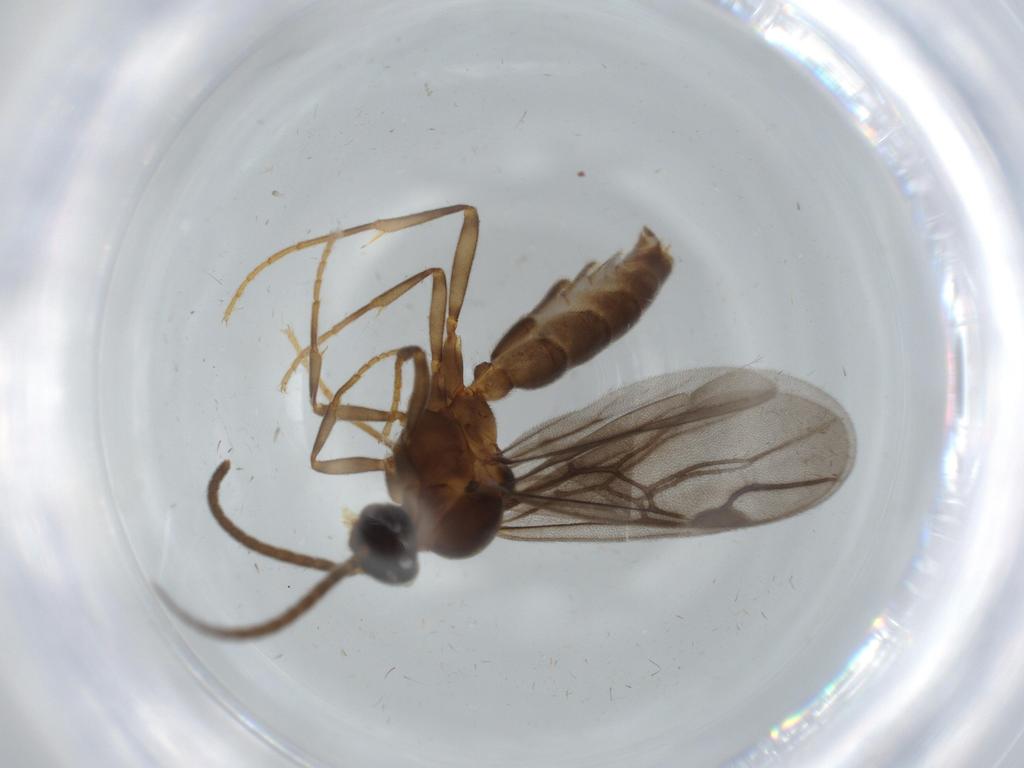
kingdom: Animalia
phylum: Arthropoda
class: Insecta
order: Hymenoptera
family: Formicidae
